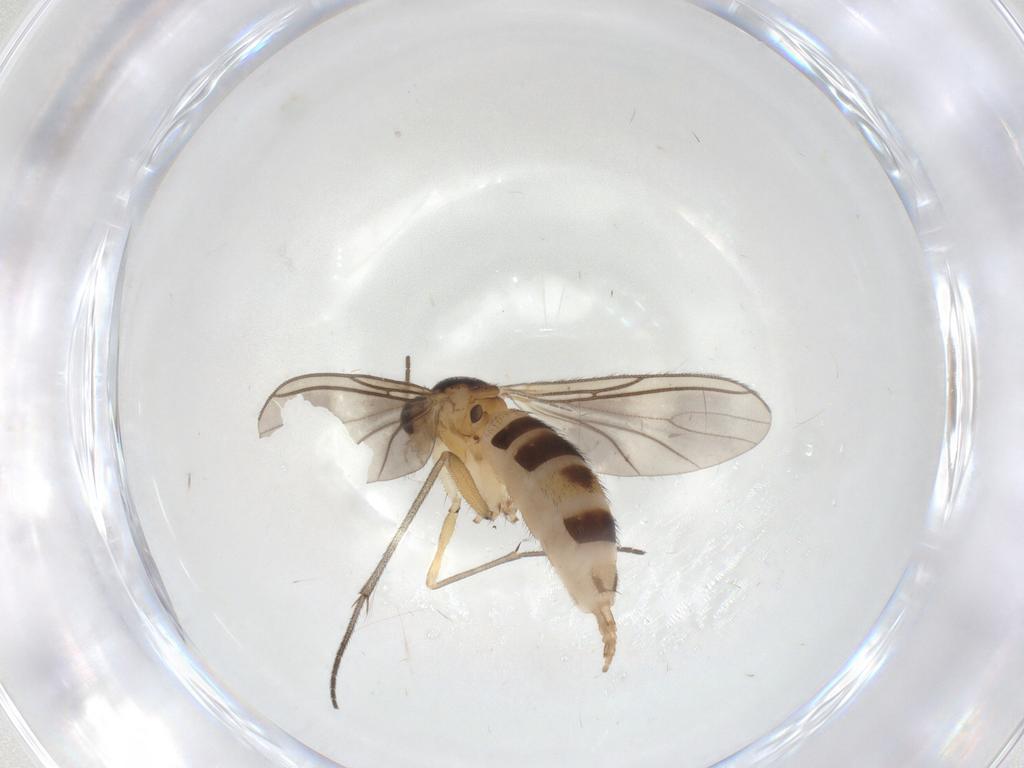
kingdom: Animalia
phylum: Arthropoda
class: Insecta
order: Diptera
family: Sciaridae
